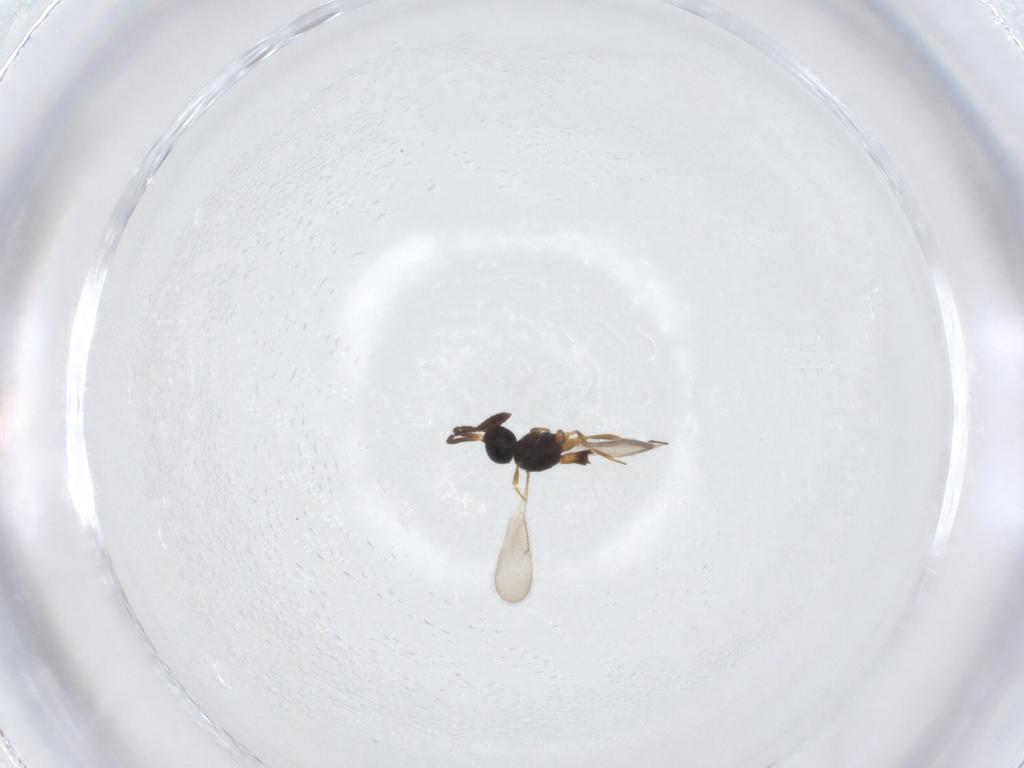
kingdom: Animalia
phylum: Arthropoda
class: Insecta
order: Hymenoptera
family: Scelionidae
